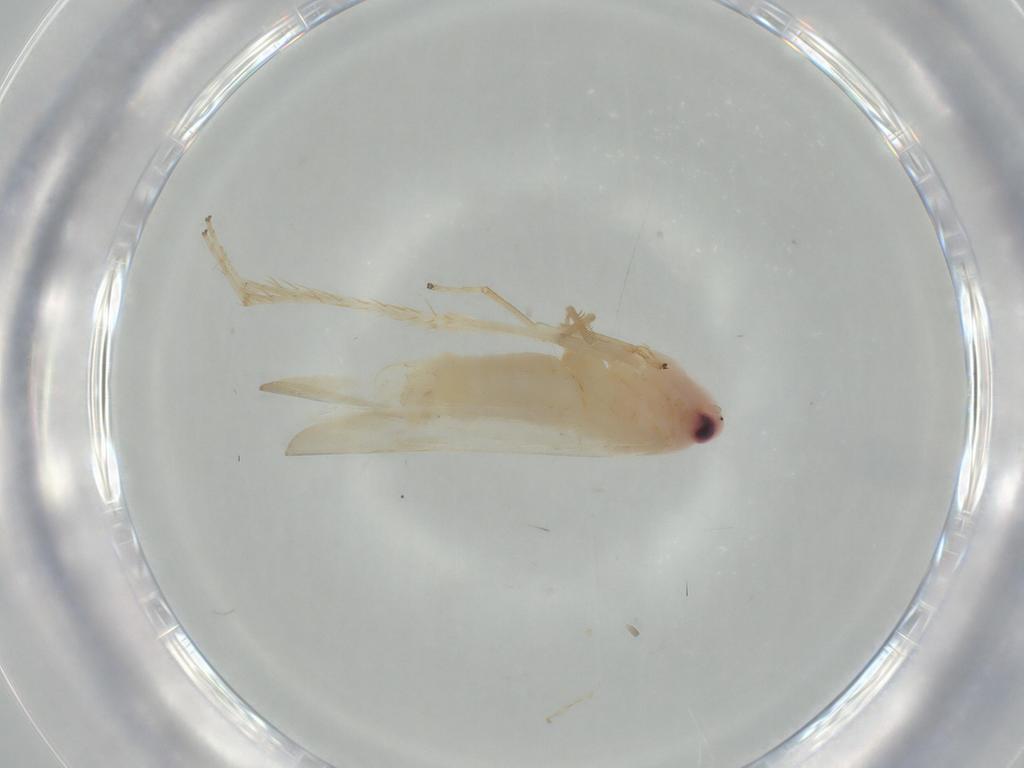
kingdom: Animalia
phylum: Arthropoda
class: Insecta
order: Hemiptera
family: Cicadellidae
